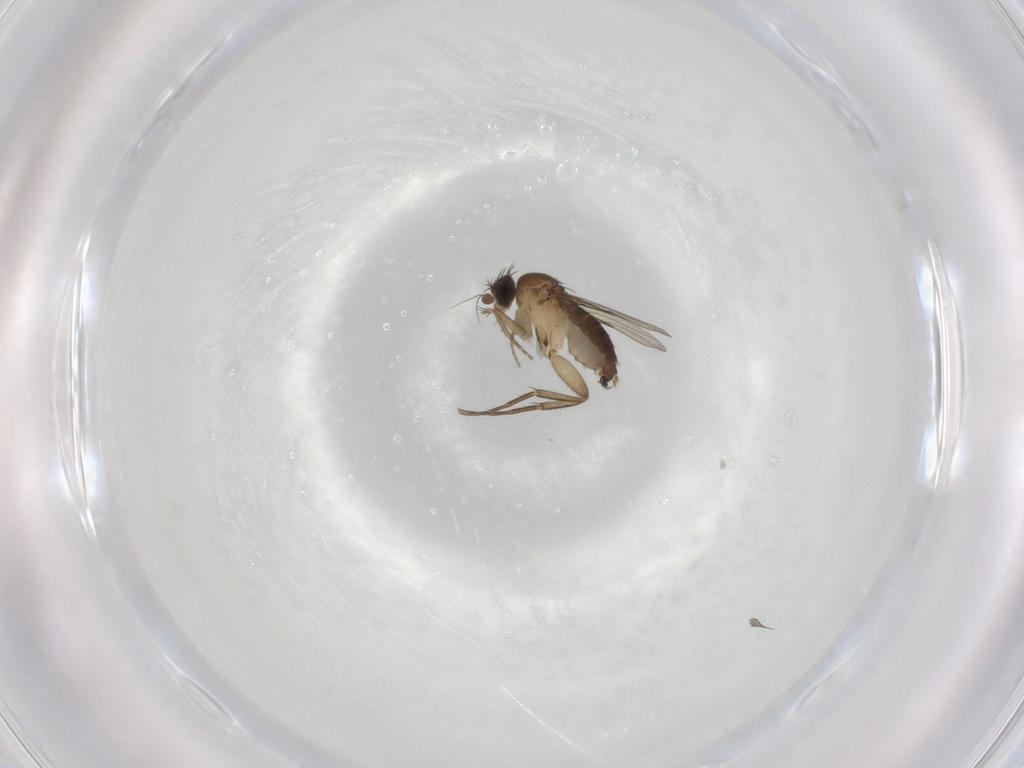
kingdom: Animalia
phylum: Arthropoda
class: Insecta
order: Diptera
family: Phoridae
